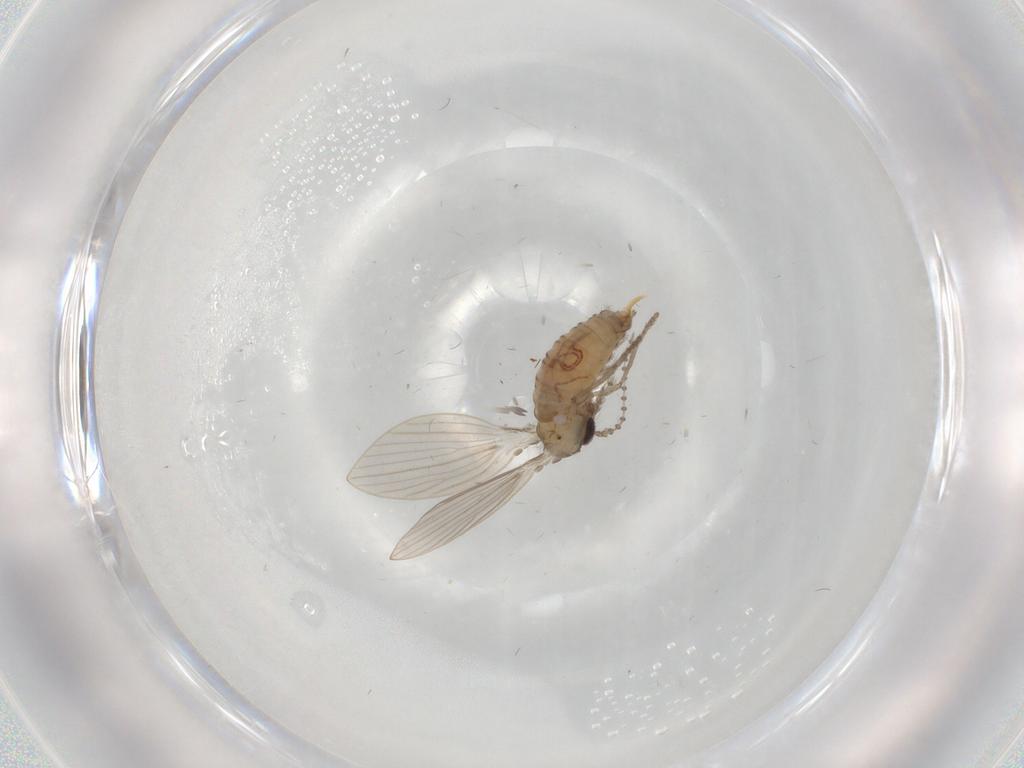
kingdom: Animalia
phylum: Arthropoda
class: Insecta
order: Diptera
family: Psychodidae
